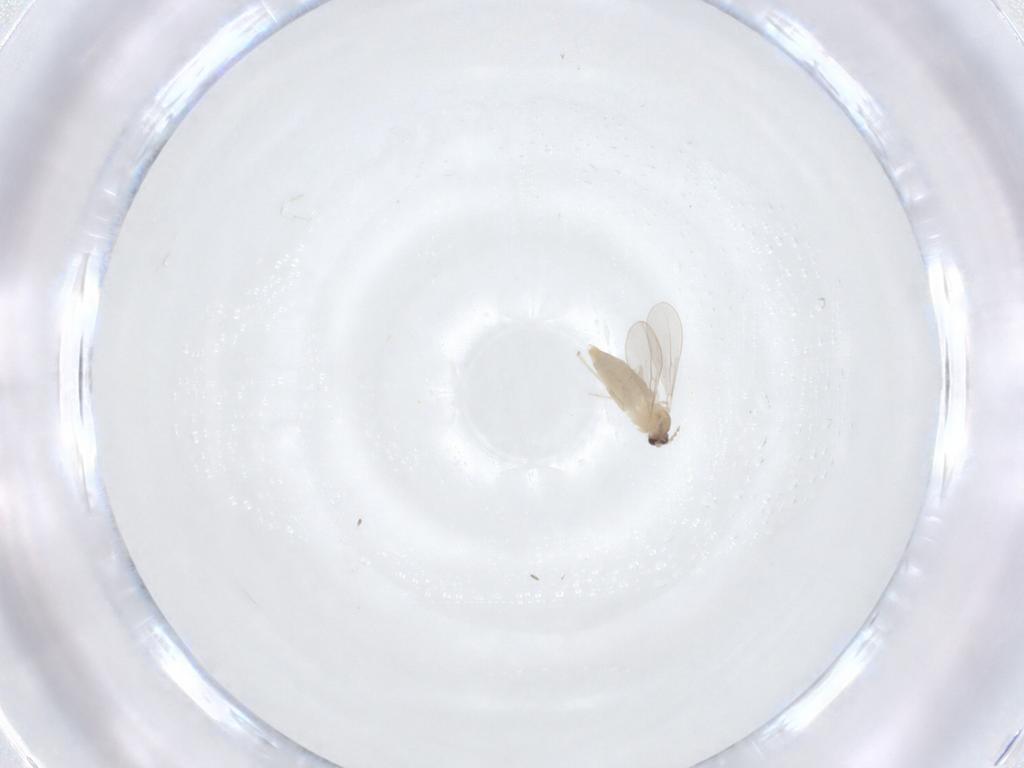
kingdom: Animalia
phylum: Arthropoda
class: Insecta
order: Diptera
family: Cecidomyiidae
